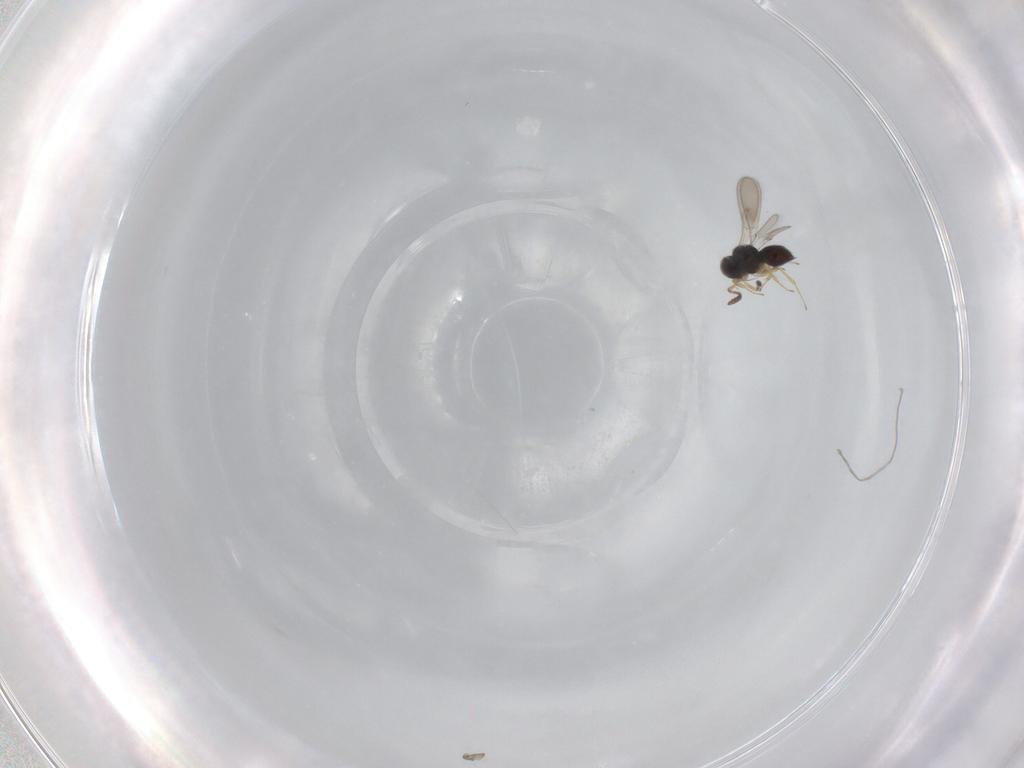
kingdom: Animalia
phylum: Arthropoda
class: Insecta
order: Hymenoptera
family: Scelionidae
